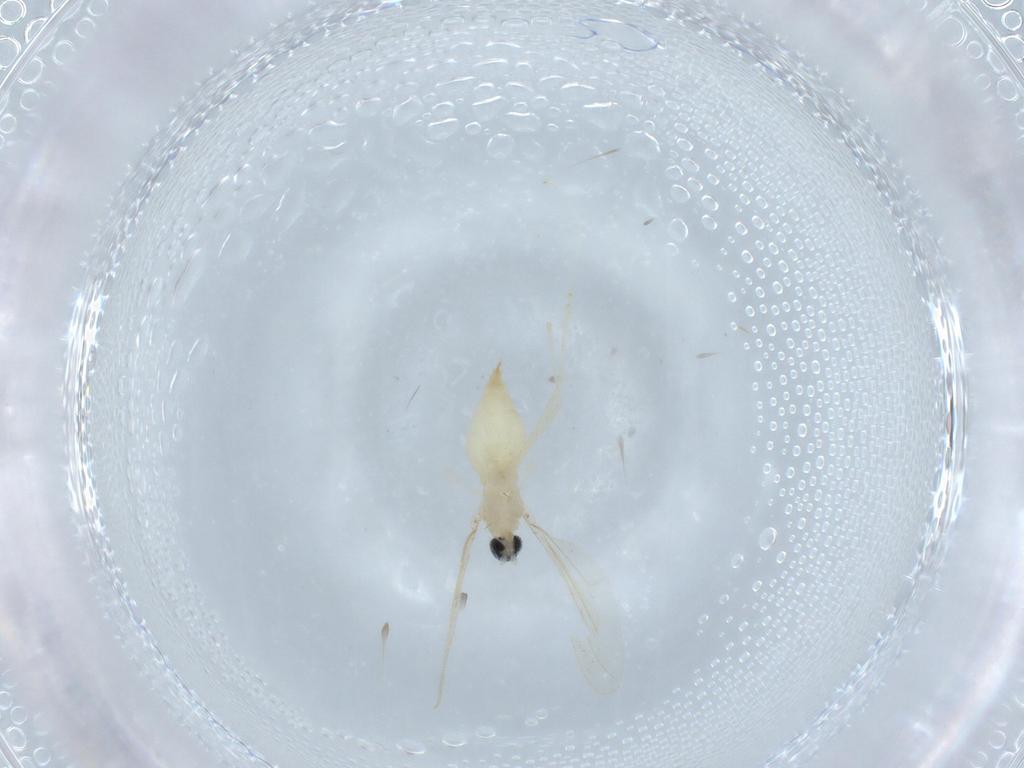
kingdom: Animalia
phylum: Arthropoda
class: Insecta
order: Diptera
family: Cecidomyiidae
